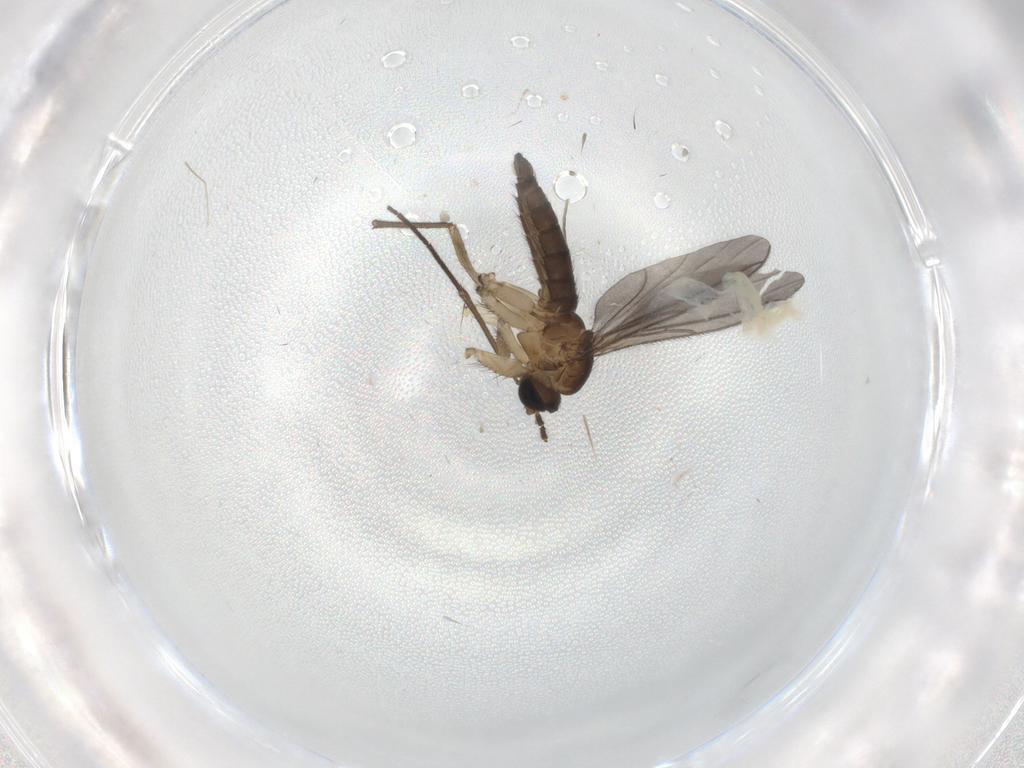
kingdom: Animalia
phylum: Arthropoda
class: Insecta
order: Diptera
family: Phoridae
